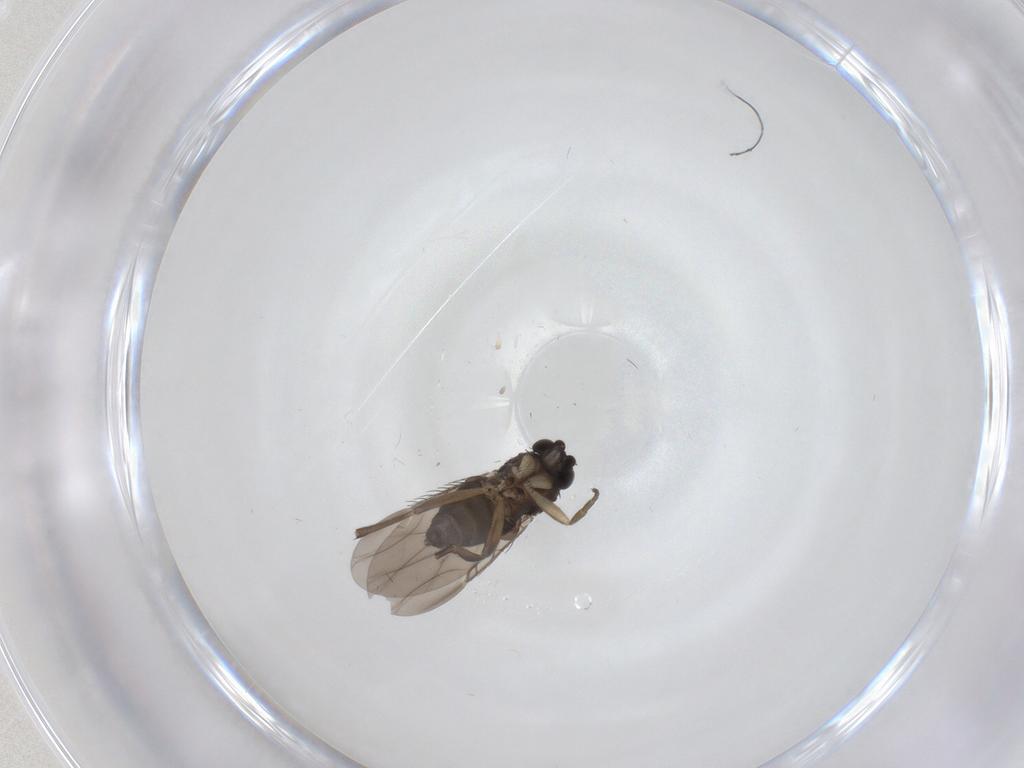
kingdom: Animalia
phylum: Arthropoda
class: Insecta
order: Diptera
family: Phoridae
